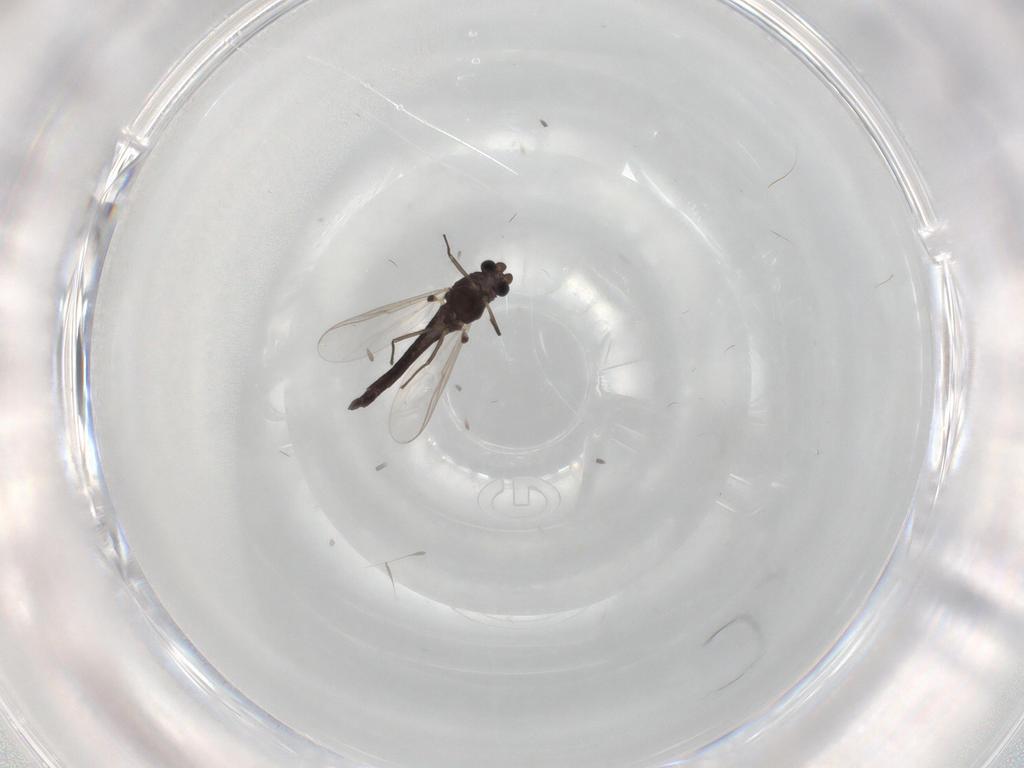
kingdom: Animalia
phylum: Arthropoda
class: Insecta
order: Diptera
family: Chironomidae
